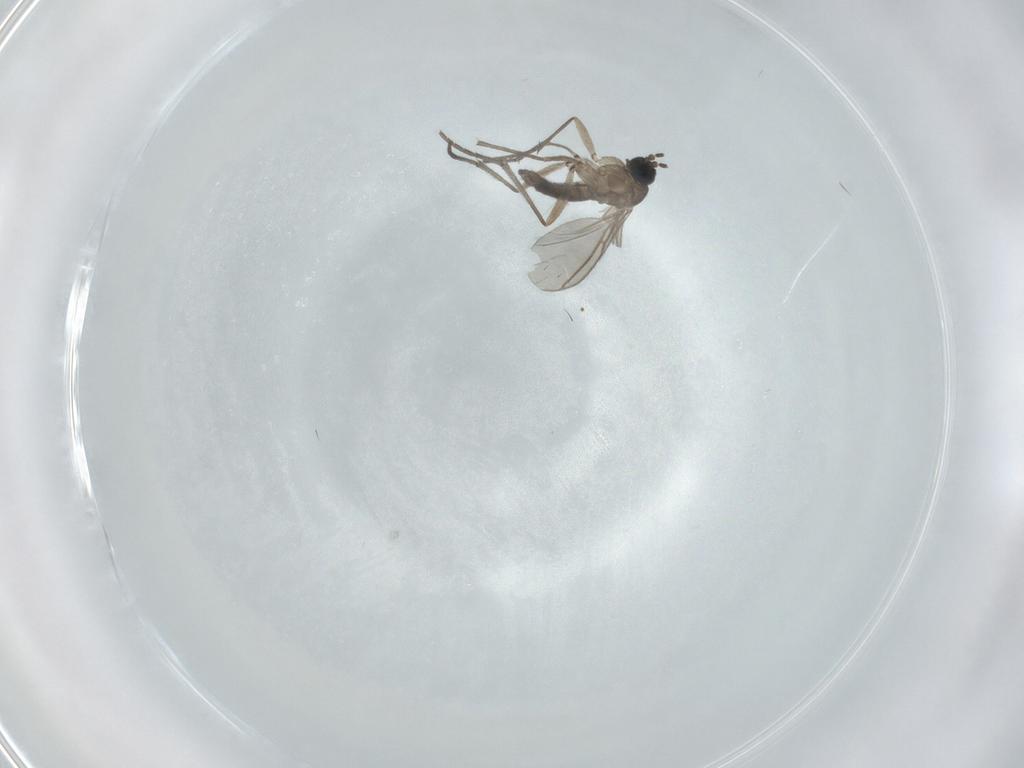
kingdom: Animalia
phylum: Arthropoda
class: Insecta
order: Diptera
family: Sciaridae
